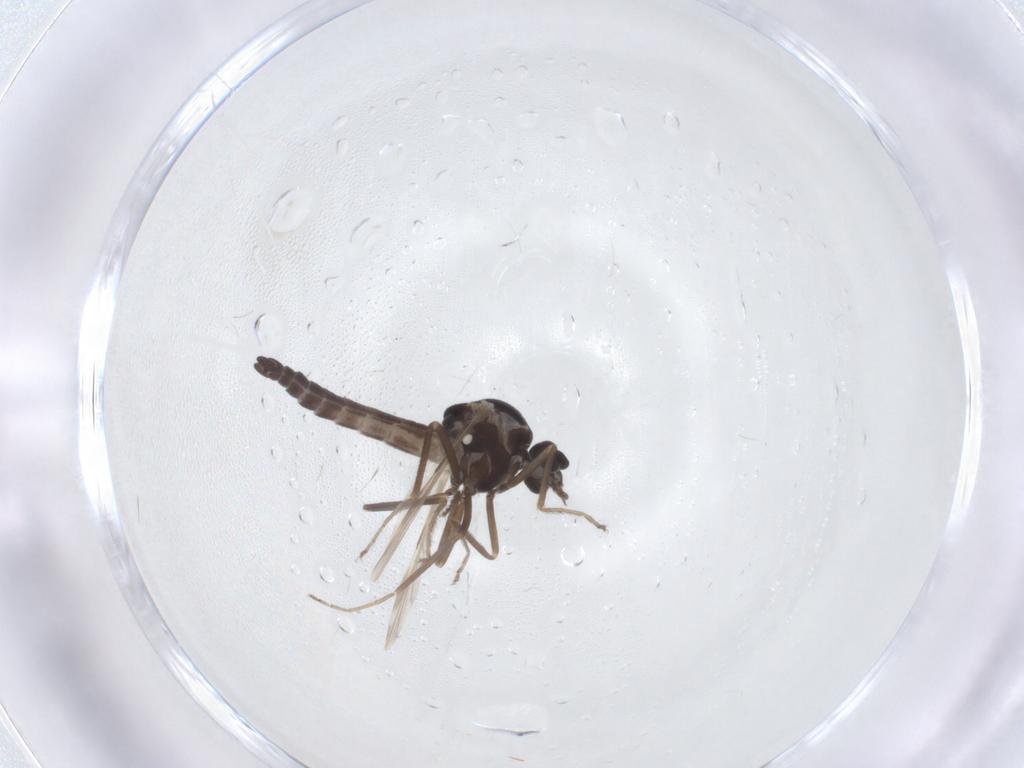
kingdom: Animalia
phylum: Arthropoda
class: Insecta
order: Diptera
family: Ceratopogonidae
